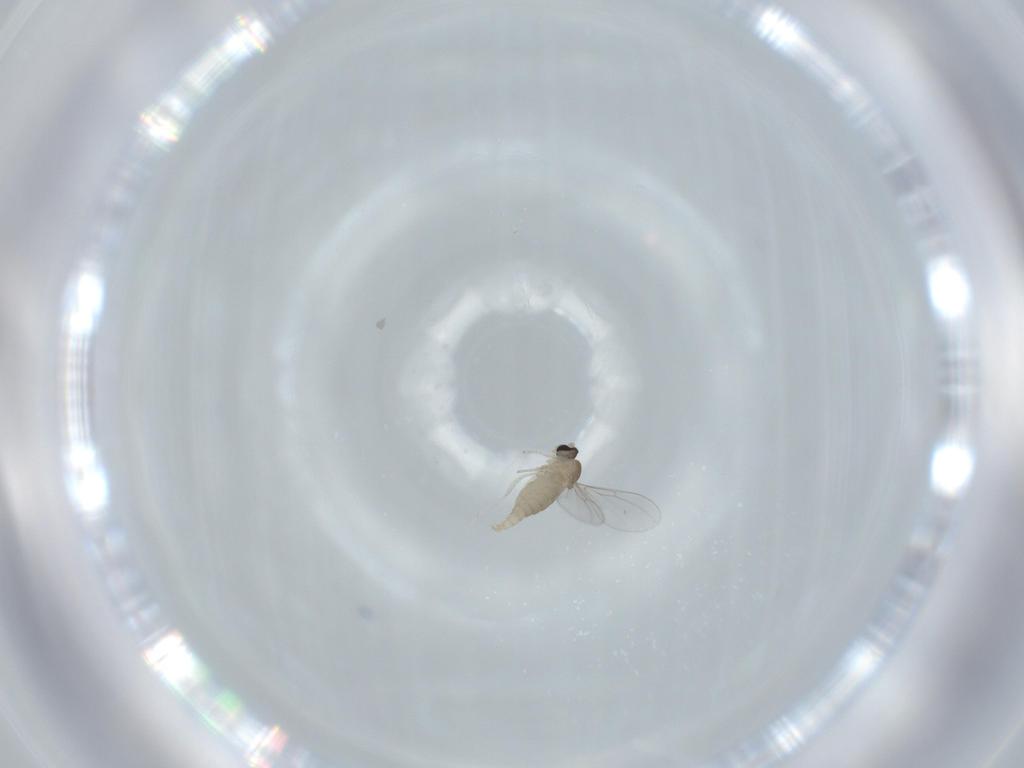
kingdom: Animalia
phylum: Arthropoda
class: Insecta
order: Diptera
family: Cecidomyiidae
